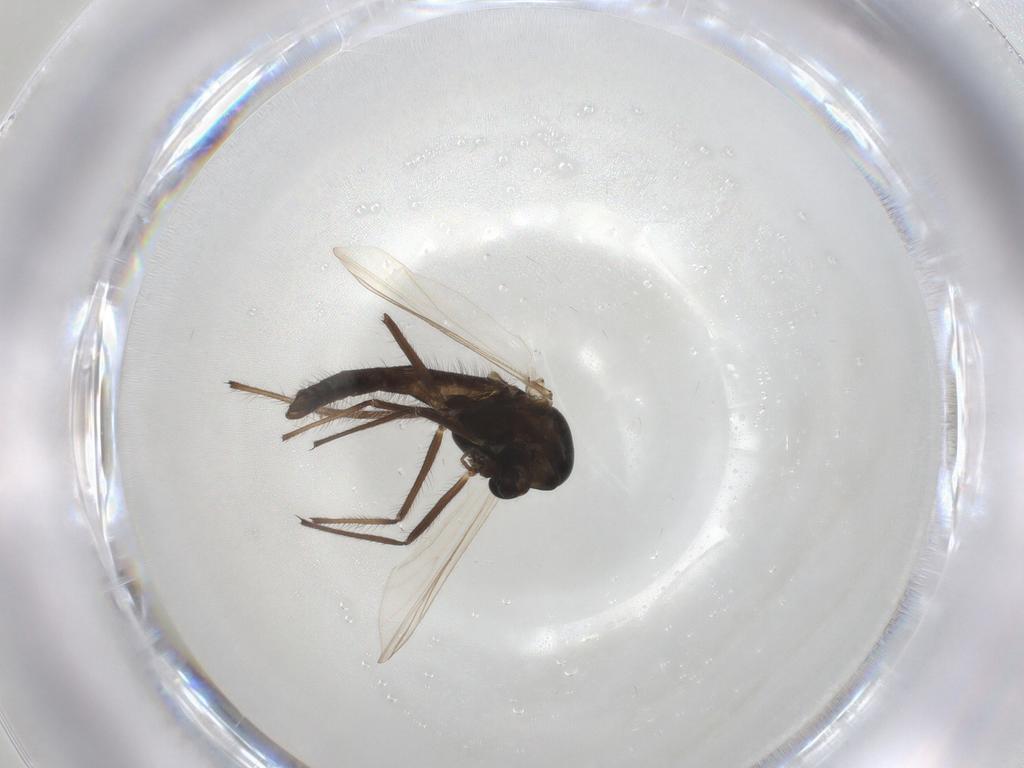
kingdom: Animalia
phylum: Arthropoda
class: Insecta
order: Diptera
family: Chironomidae
